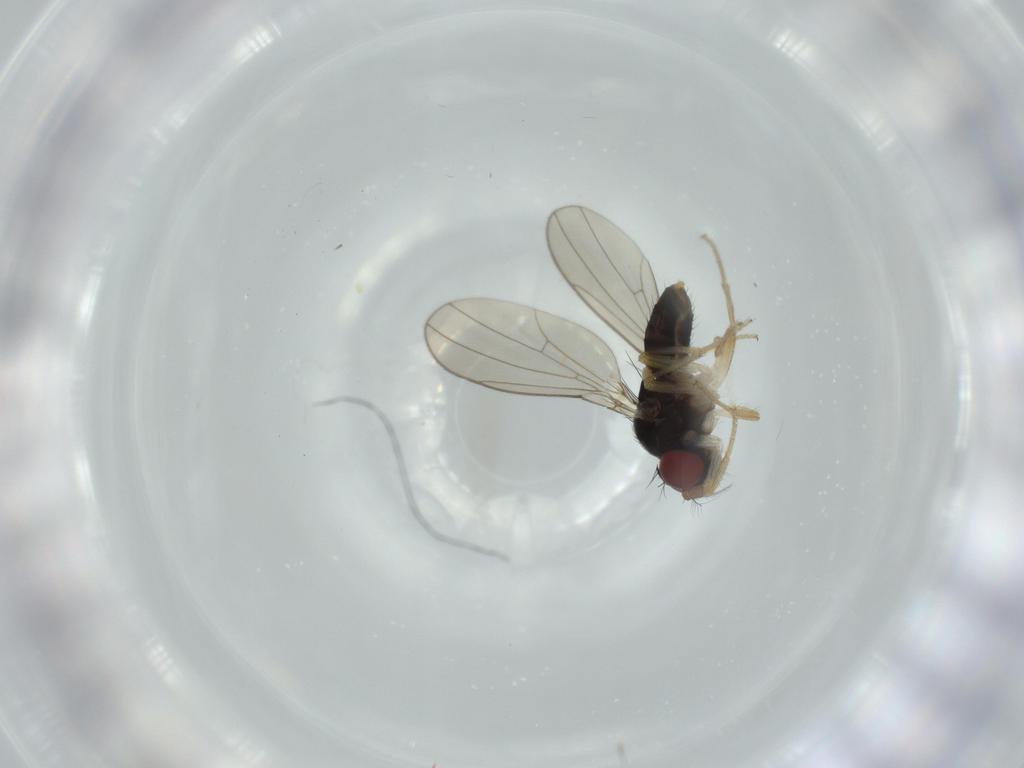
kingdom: Animalia
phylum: Arthropoda
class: Insecta
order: Diptera
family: Drosophilidae
